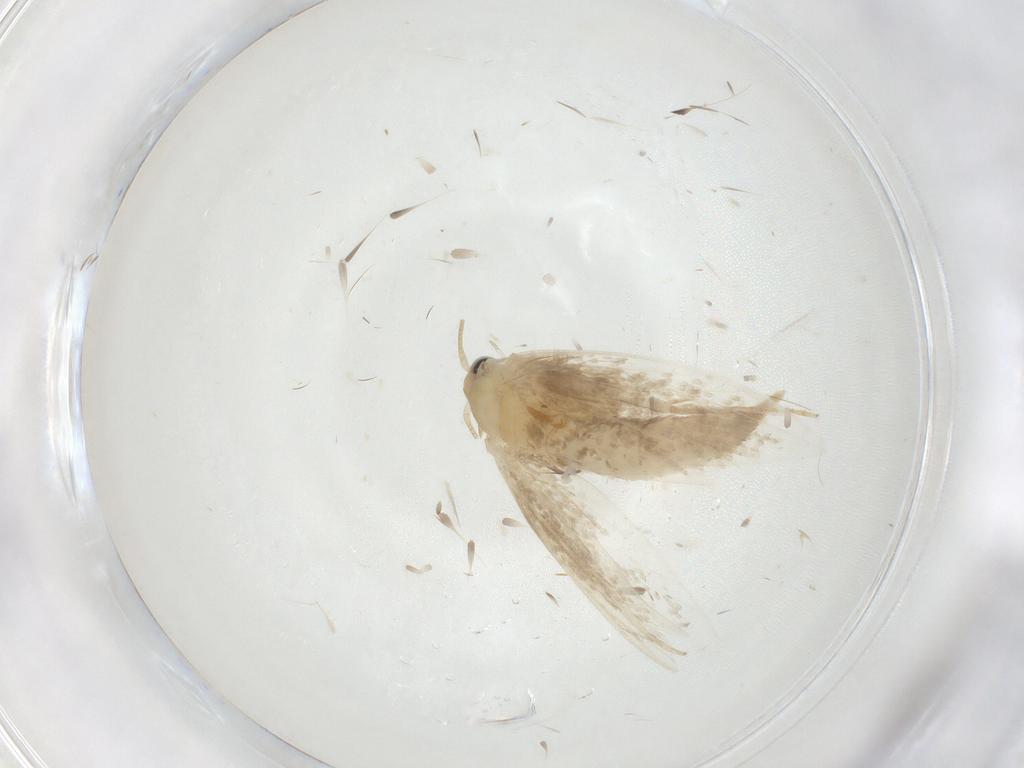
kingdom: Animalia
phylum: Arthropoda
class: Insecta
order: Lepidoptera
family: Tineidae
